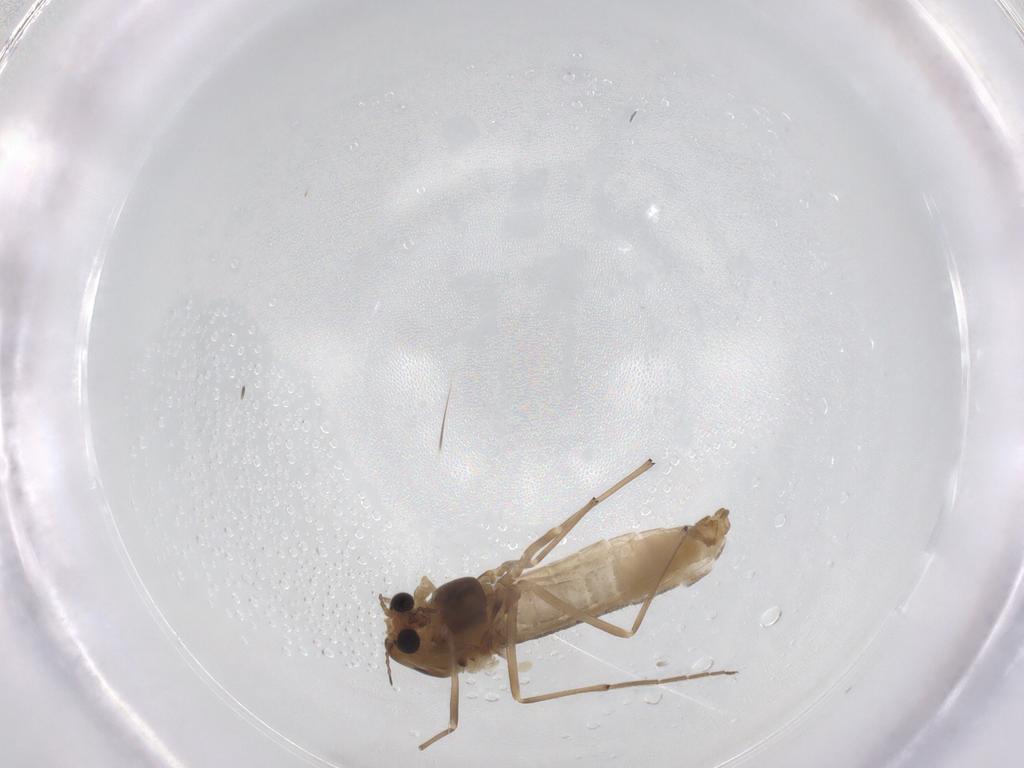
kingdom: Animalia
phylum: Arthropoda
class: Insecta
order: Diptera
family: Chironomidae
